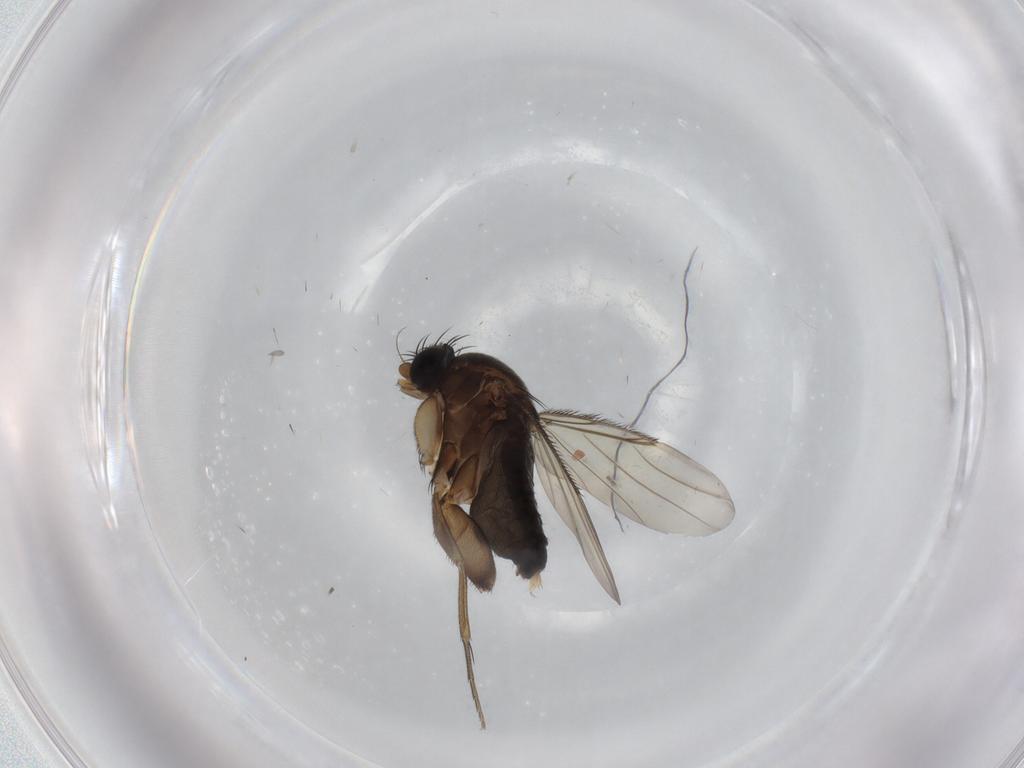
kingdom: Animalia
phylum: Arthropoda
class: Insecta
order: Diptera
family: Phoridae
